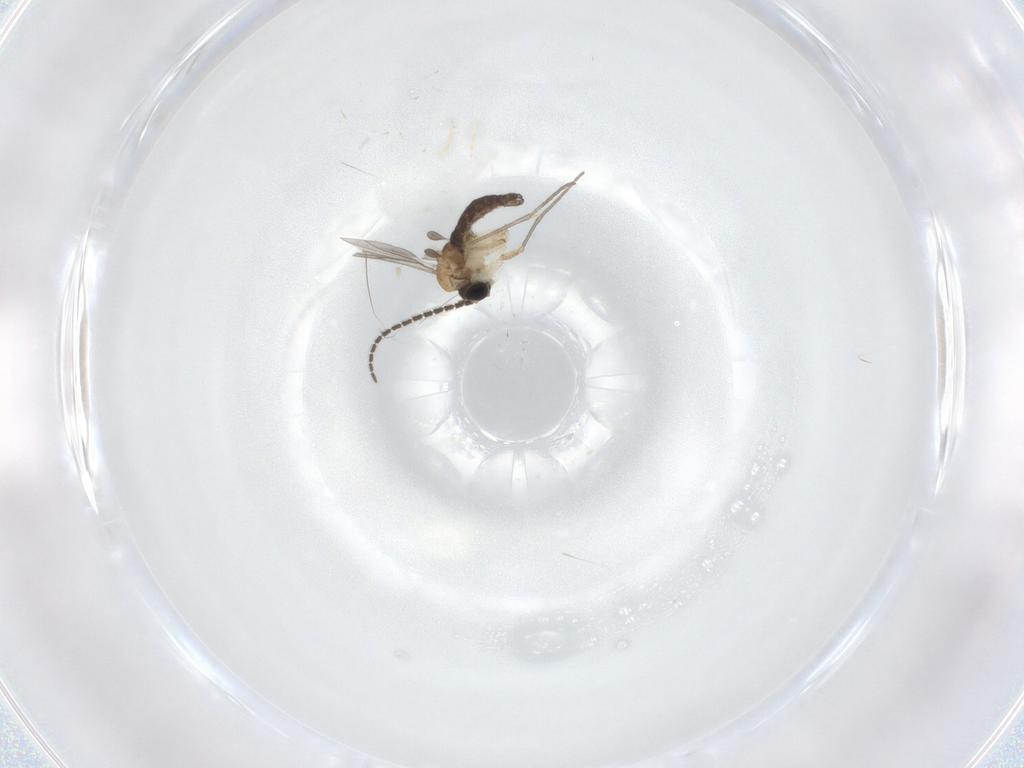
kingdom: Animalia
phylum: Arthropoda
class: Insecta
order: Diptera
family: Sciaridae
